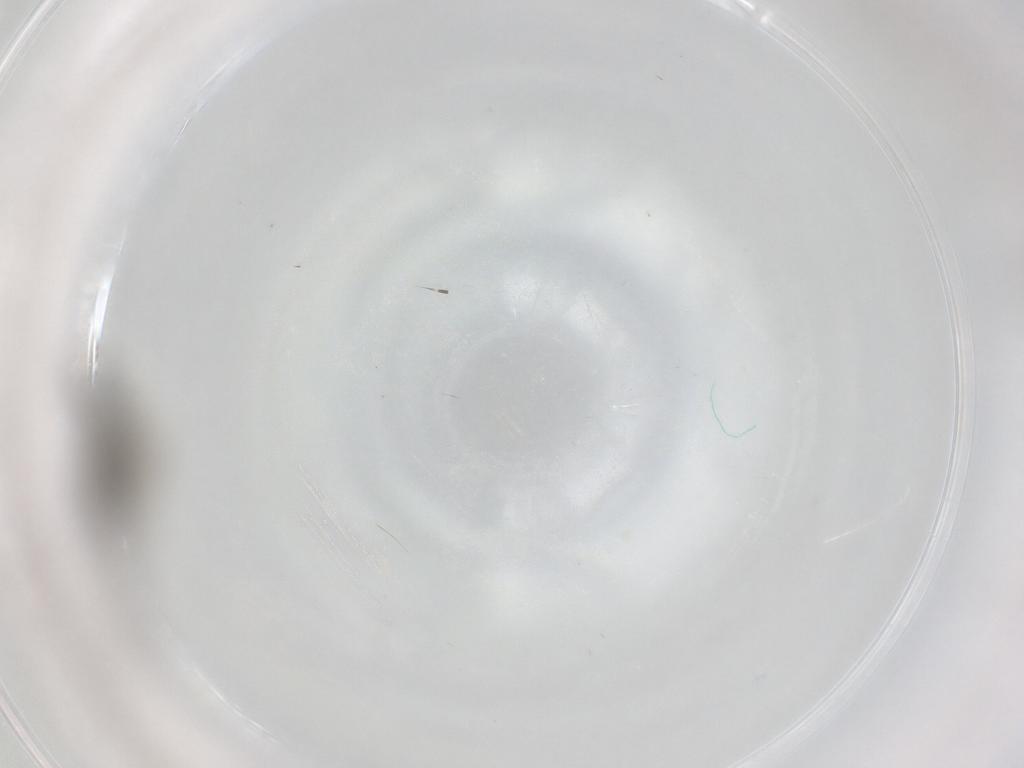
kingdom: Animalia
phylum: Arthropoda
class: Insecta
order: Diptera
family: Cecidomyiidae
